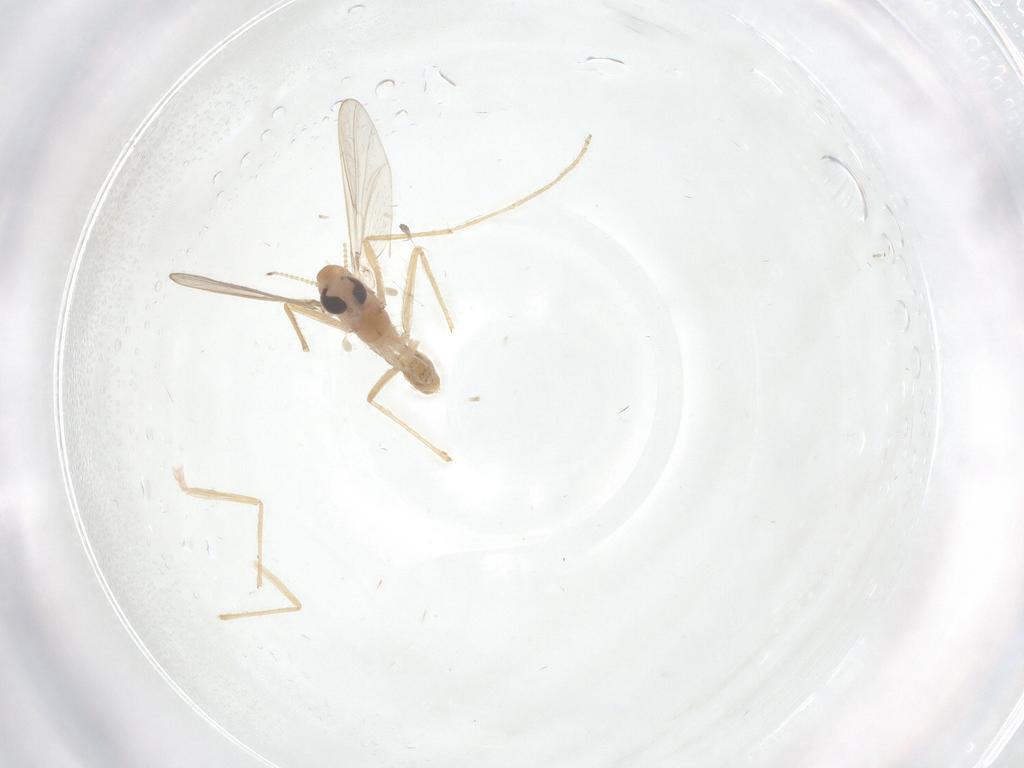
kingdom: Animalia
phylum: Arthropoda
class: Insecta
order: Diptera
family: Chironomidae
